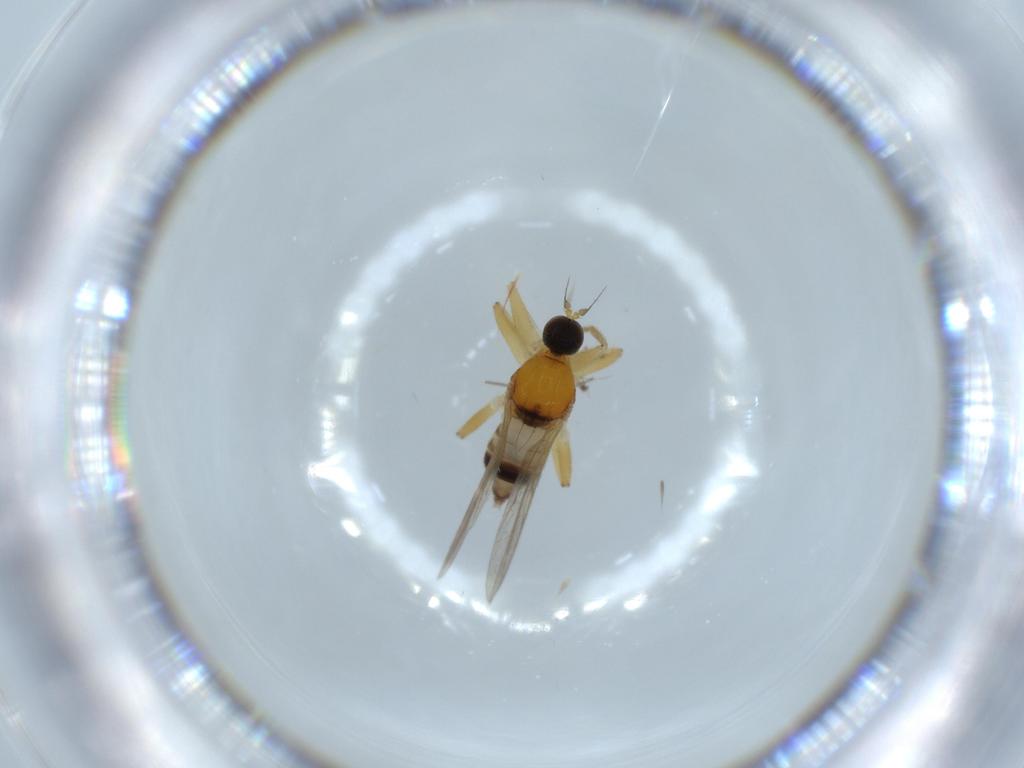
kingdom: Animalia
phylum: Arthropoda
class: Insecta
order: Diptera
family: Hybotidae
